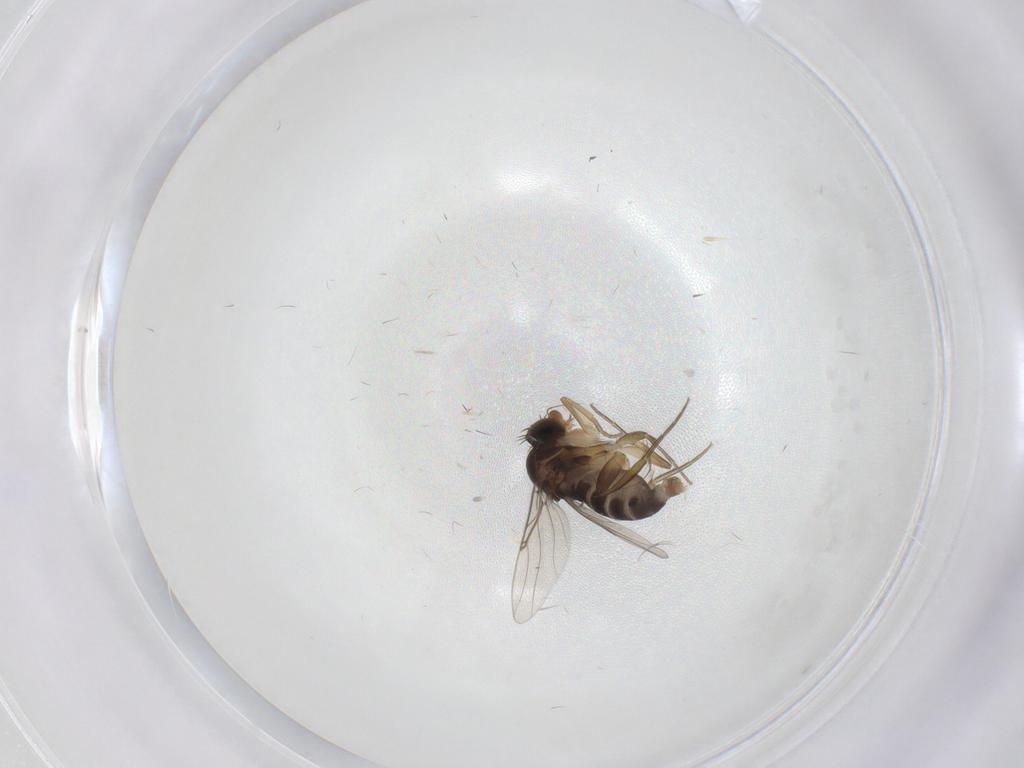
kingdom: Animalia
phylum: Arthropoda
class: Insecta
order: Diptera
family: Phoridae
